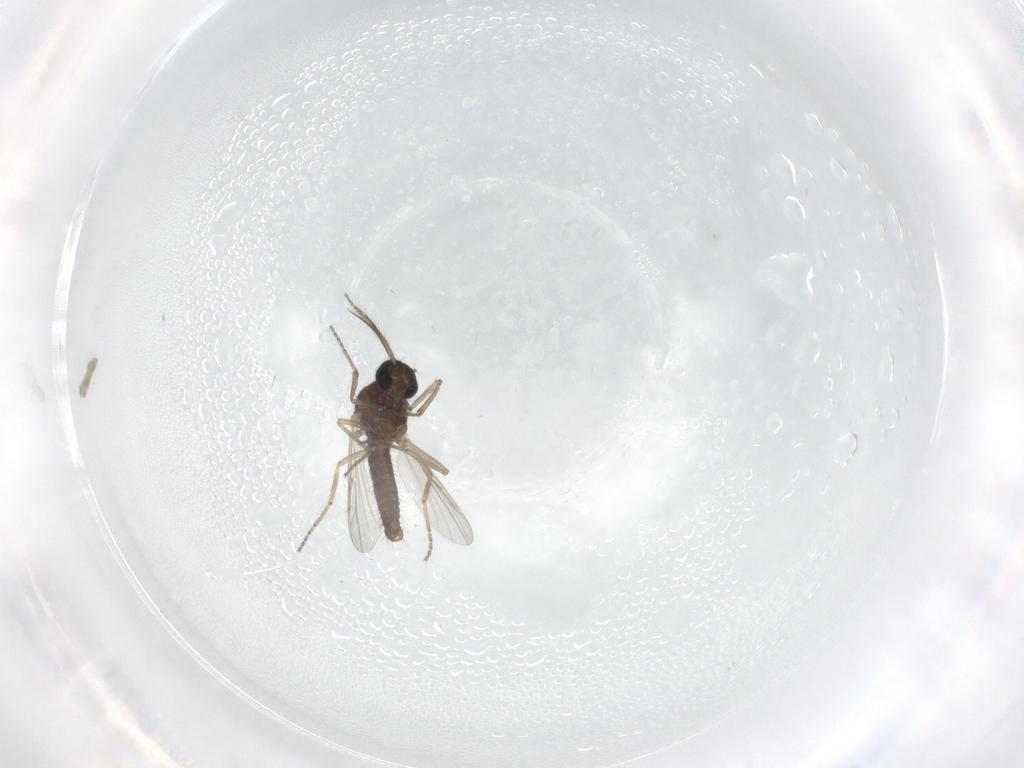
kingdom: Animalia
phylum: Arthropoda
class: Insecta
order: Diptera
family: Ceratopogonidae
